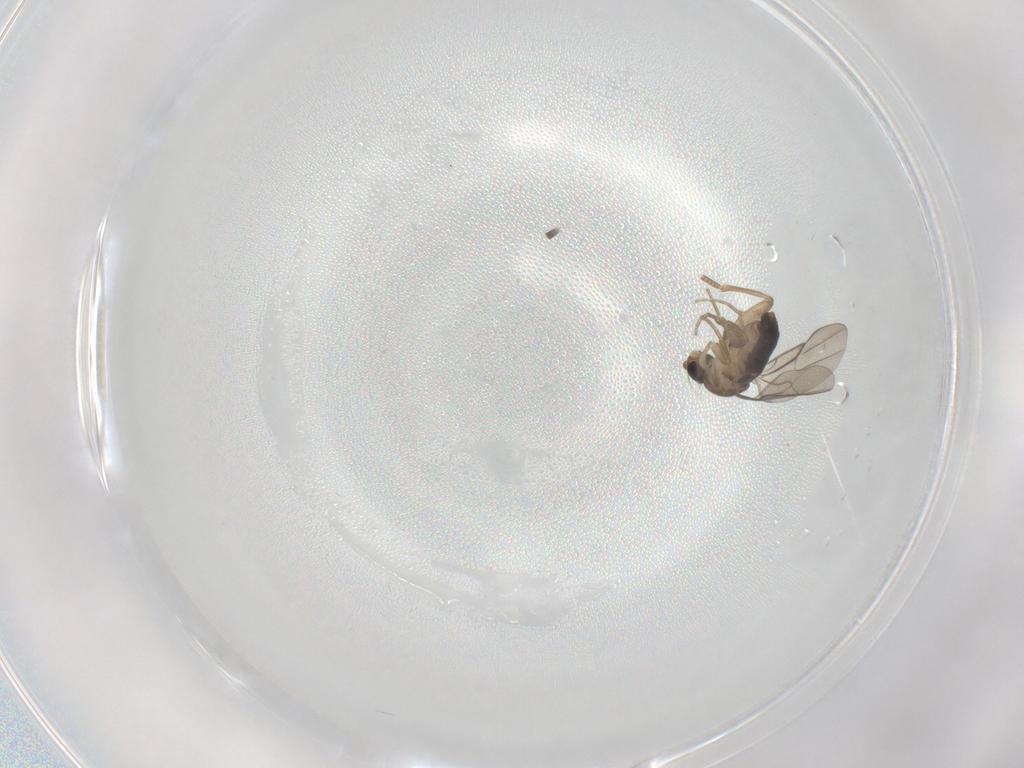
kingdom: Animalia
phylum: Arthropoda
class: Insecta
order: Diptera
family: Phoridae
